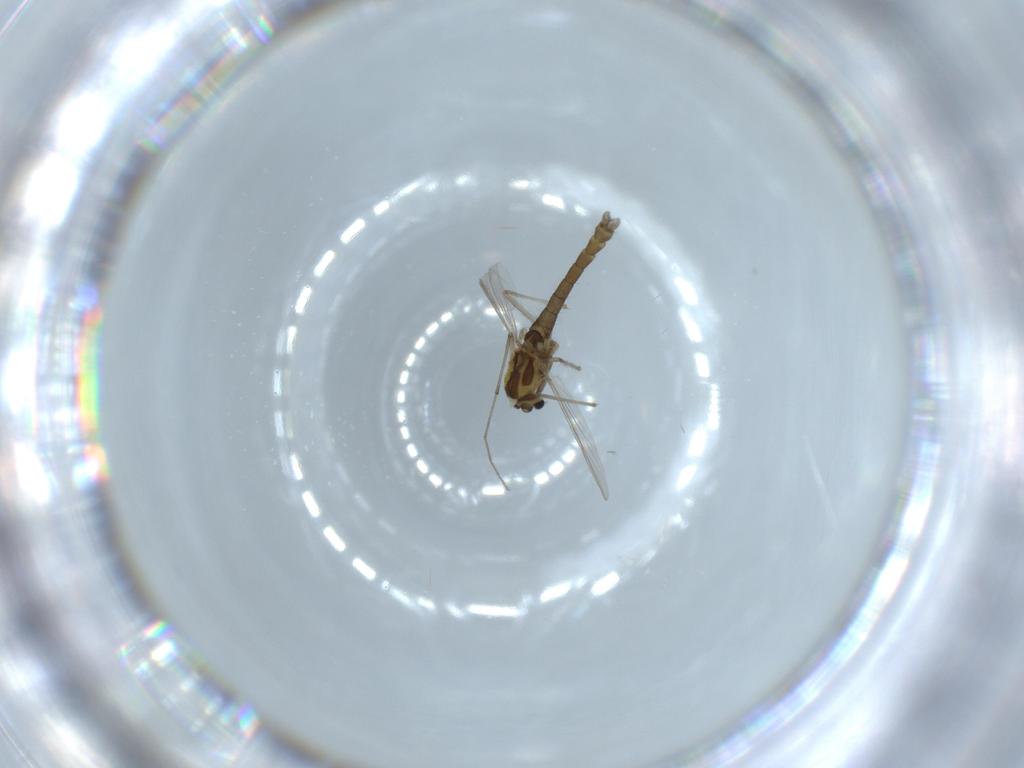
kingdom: Animalia
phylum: Arthropoda
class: Insecta
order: Diptera
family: Chironomidae
